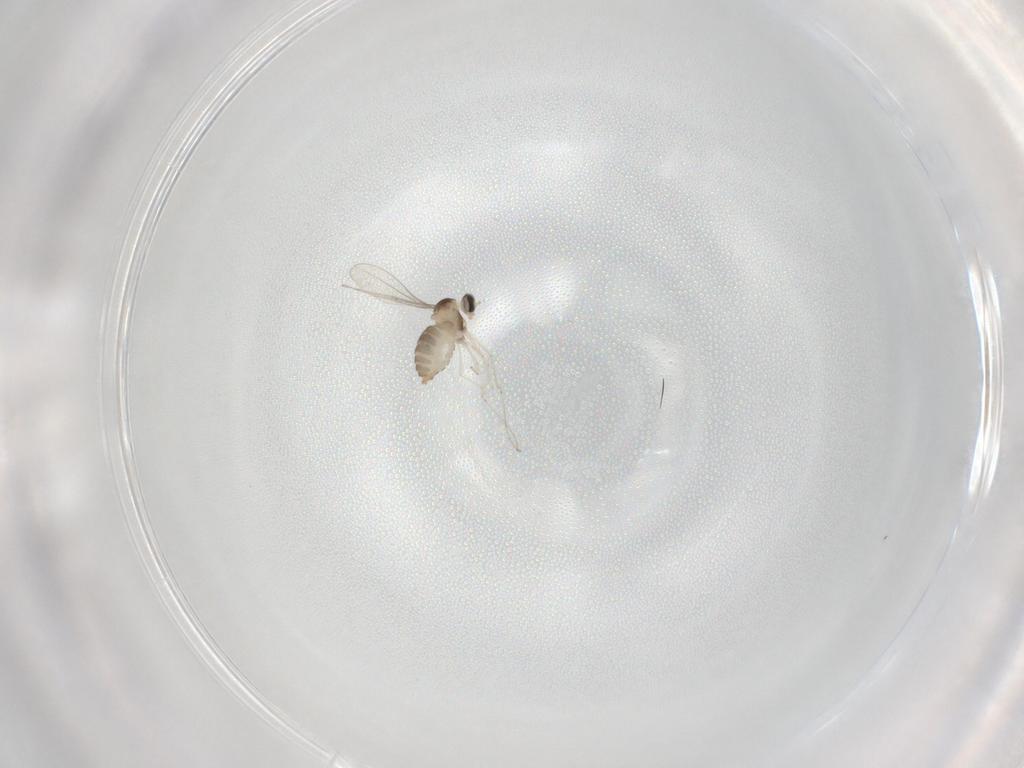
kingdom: Animalia
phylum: Arthropoda
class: Insecta
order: Diptera
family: Cecidomyiidae
